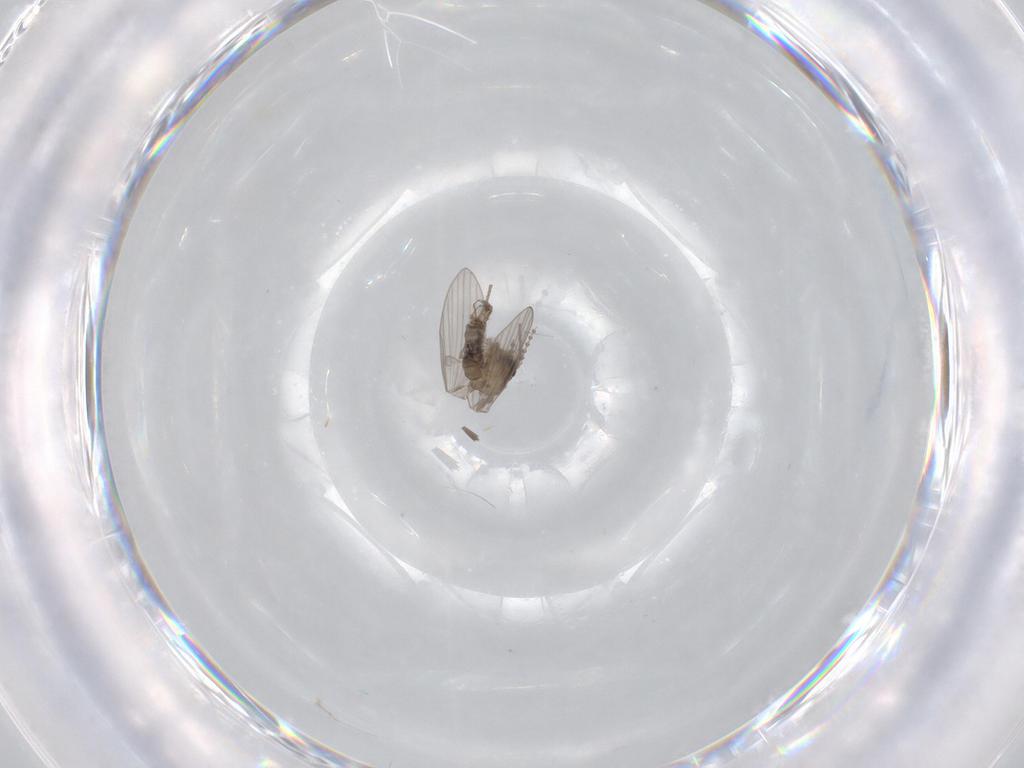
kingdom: Animalia
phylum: Arthropoda
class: Insecta
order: Diptera
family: Psychodidae
